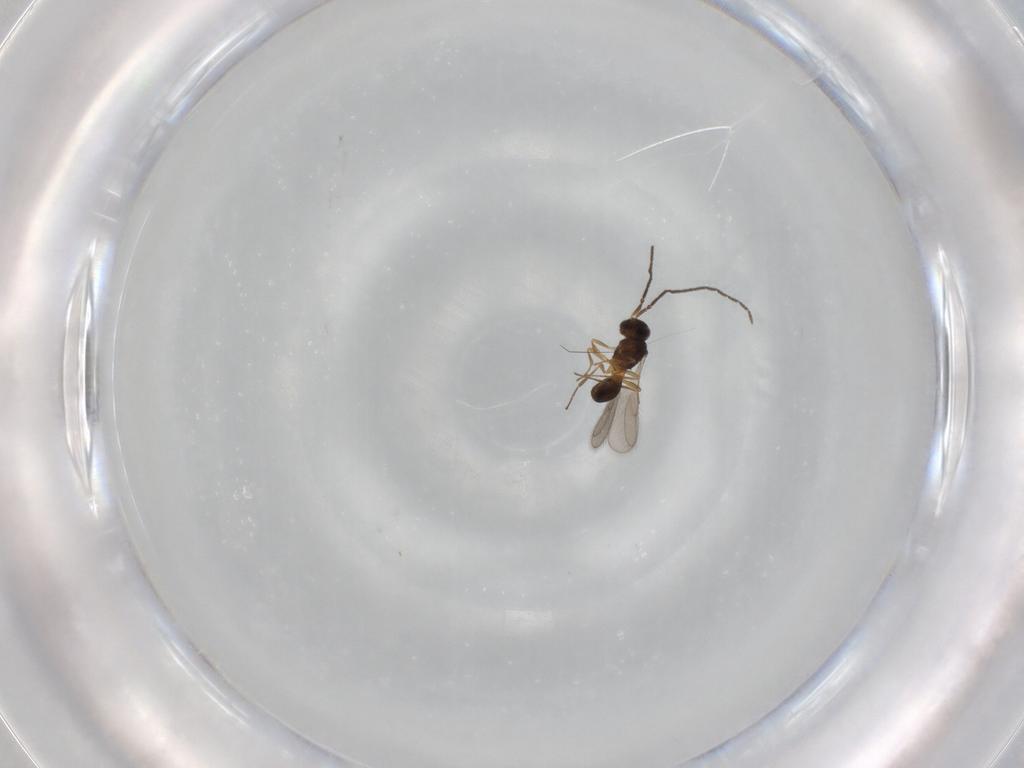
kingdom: Animalia
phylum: Arthropoda
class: Insecta
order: Hymenoptera
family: Scelionidae
